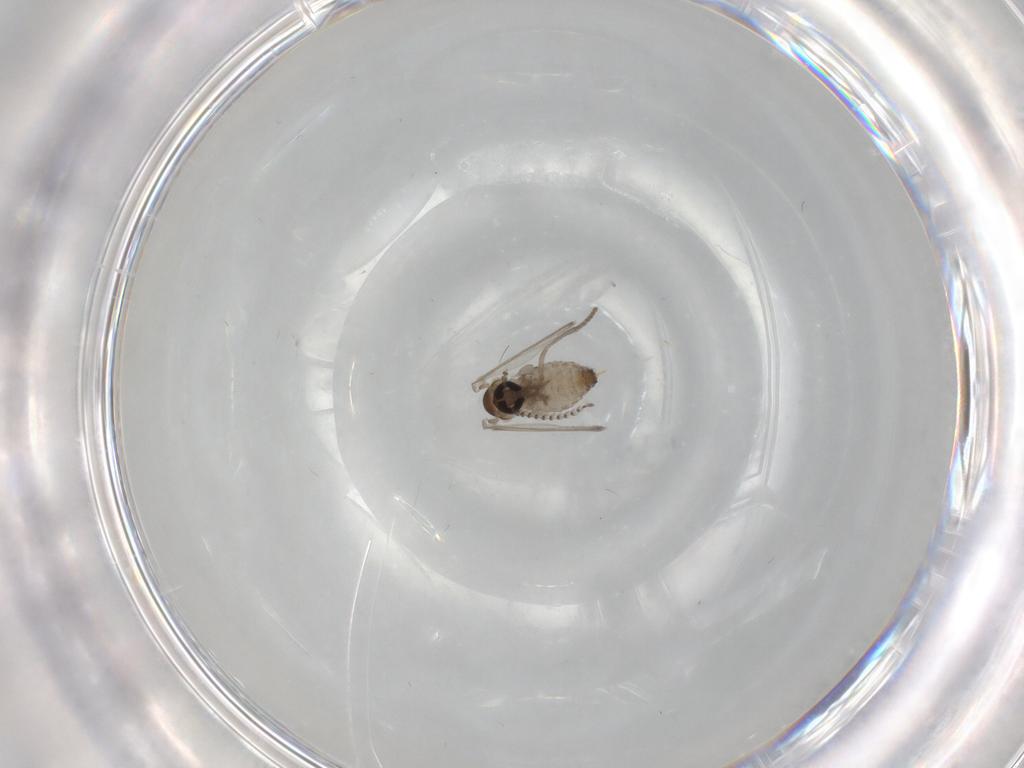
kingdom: Animalia
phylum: Arthropoda
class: Insecta
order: Diptera
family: Psychodidae
